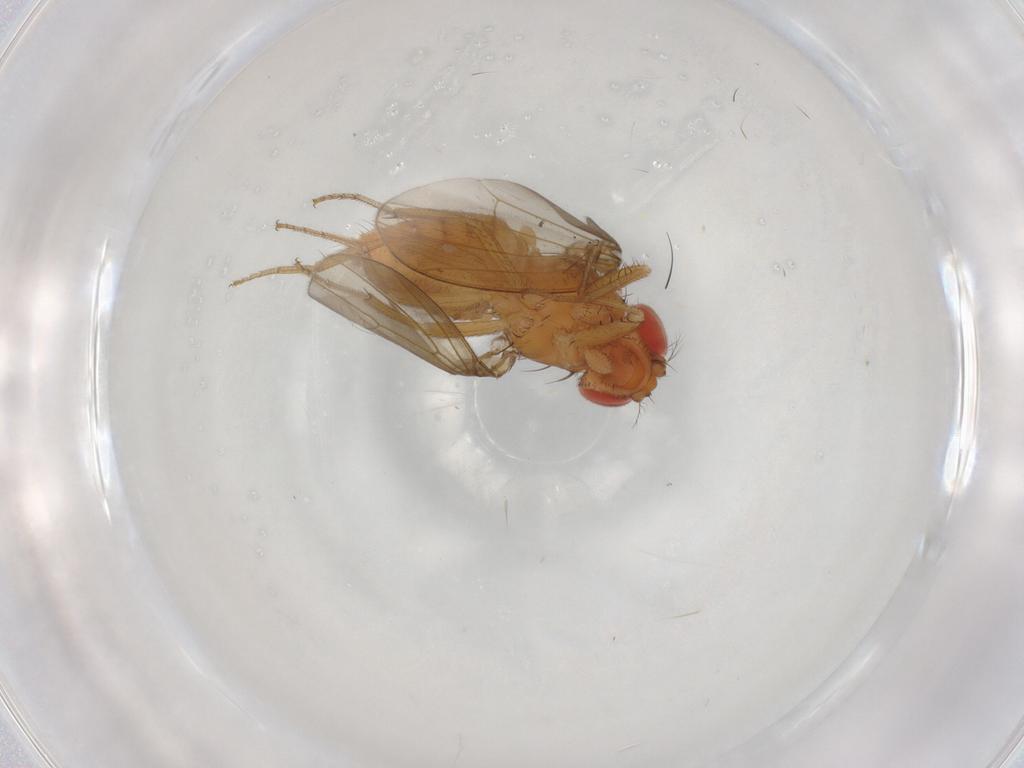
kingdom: Animalia
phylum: Arthropoda
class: Insecta
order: Diptera
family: Drosophilidae
